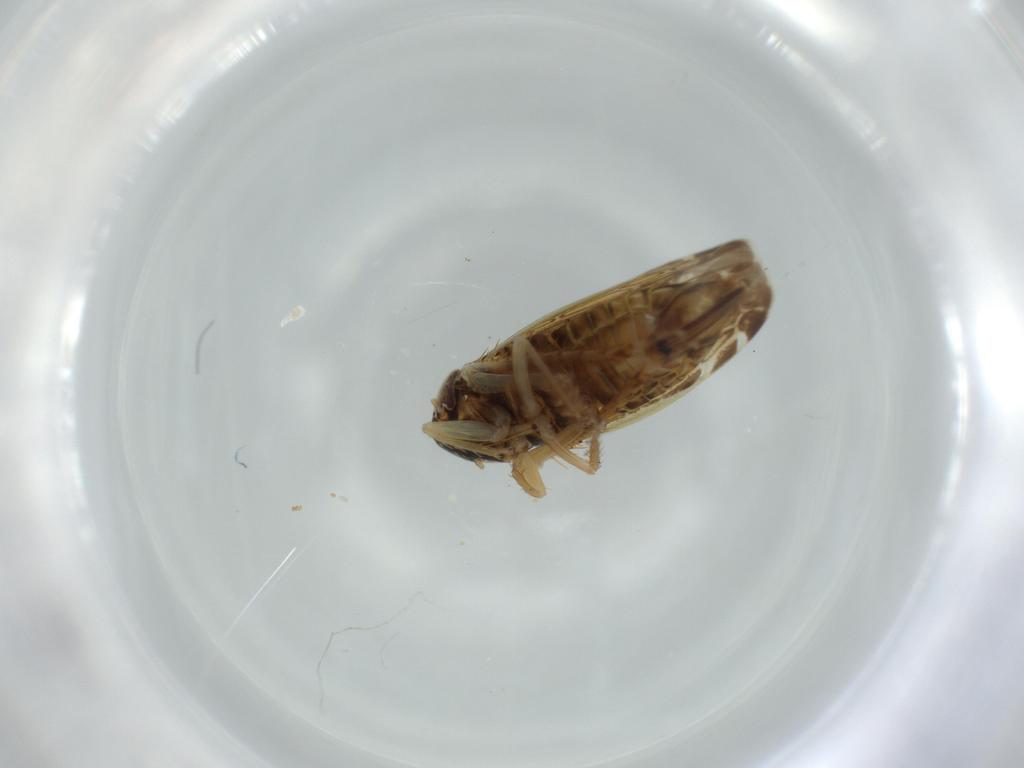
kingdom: Animalia
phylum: Arthropoda
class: Insecta
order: Hemiptera
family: Cicadellidae
